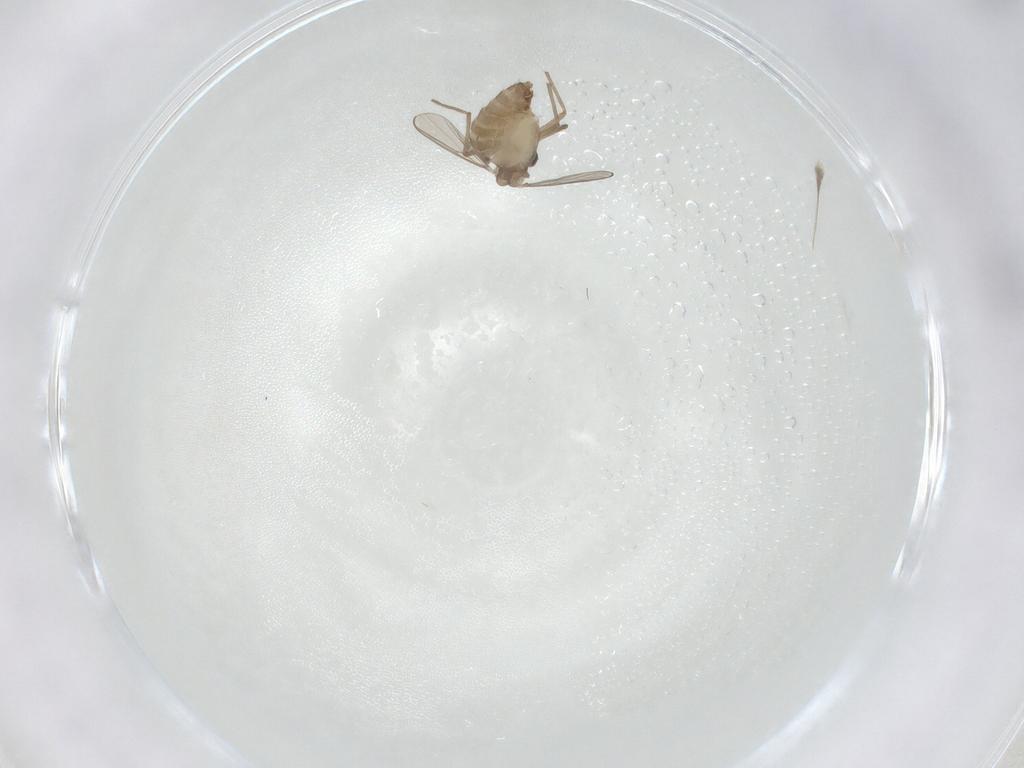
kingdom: Animalia
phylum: Arthropoda
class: Insecta
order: Diptera
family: Chironomidae
